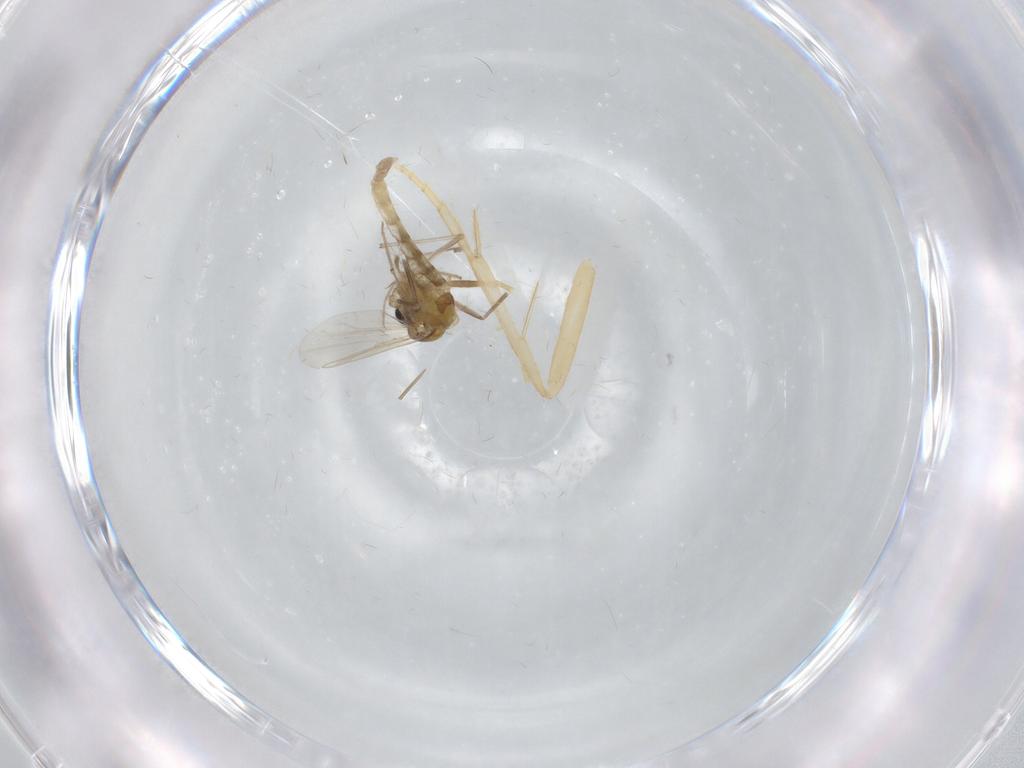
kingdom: Animalia
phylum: Arthropoda
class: Insecta
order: Diptera
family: Chironomidae
